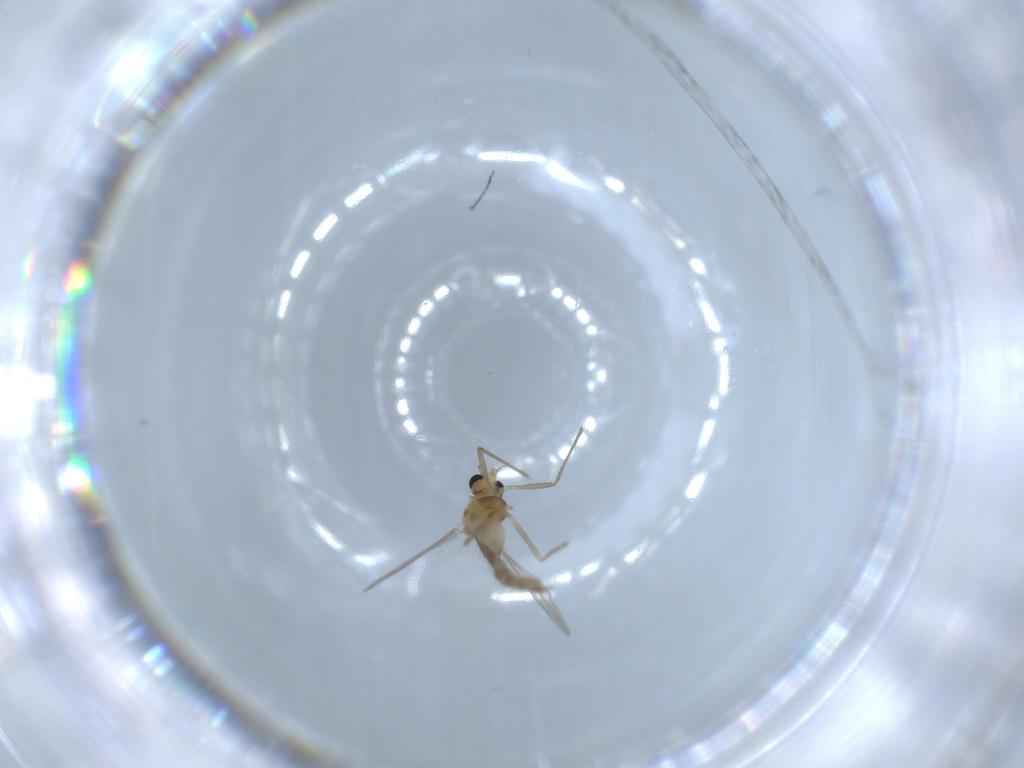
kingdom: Animalia
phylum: Arthropoda
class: Insecta
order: Diptera
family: Chironomidae
